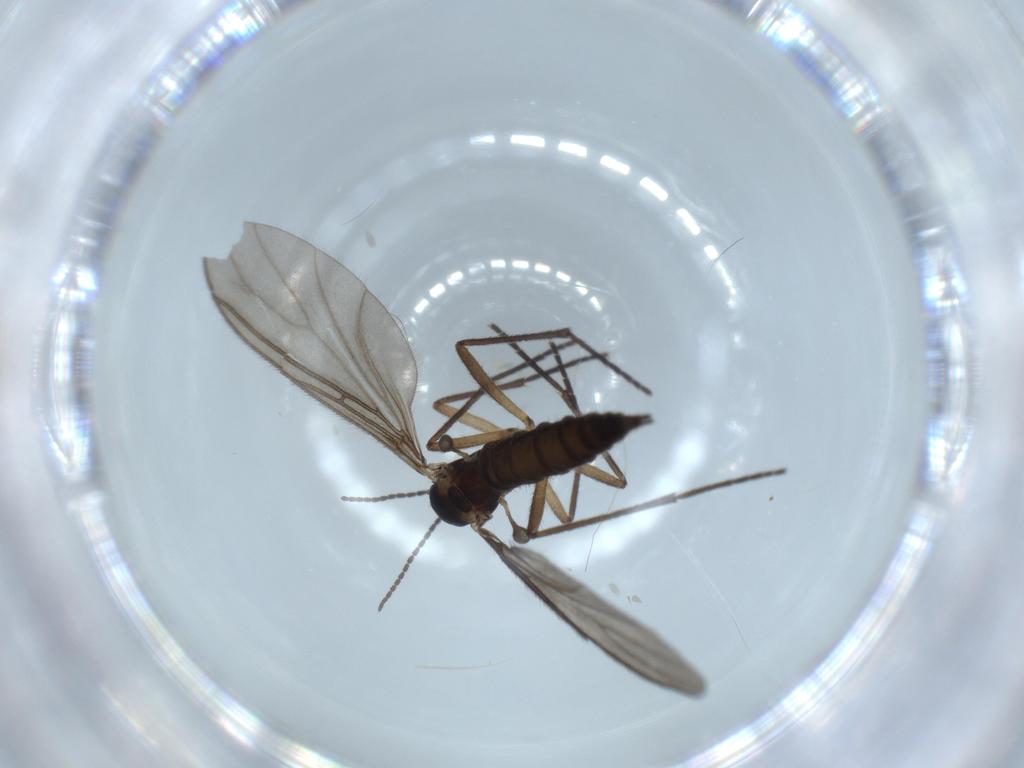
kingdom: Animalia
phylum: Arthropoda
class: Insecta
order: Diptera
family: Sciaridae
